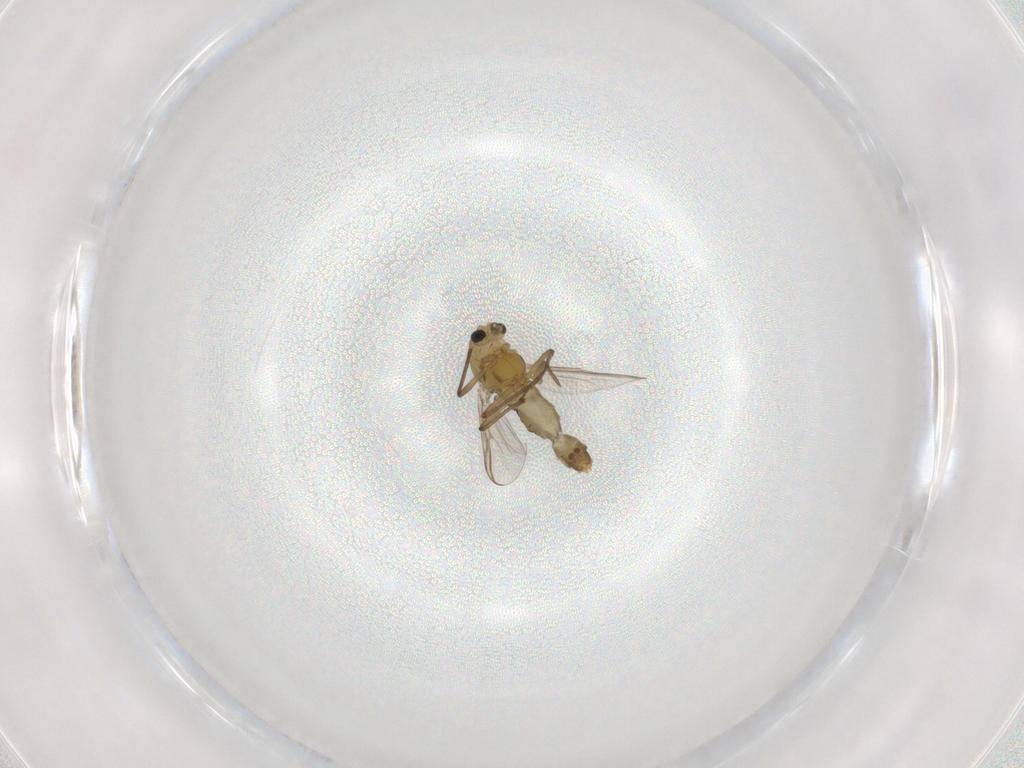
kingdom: Animalia
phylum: Arthropoda
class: Insecta
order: Diptera
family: Chironomidae
